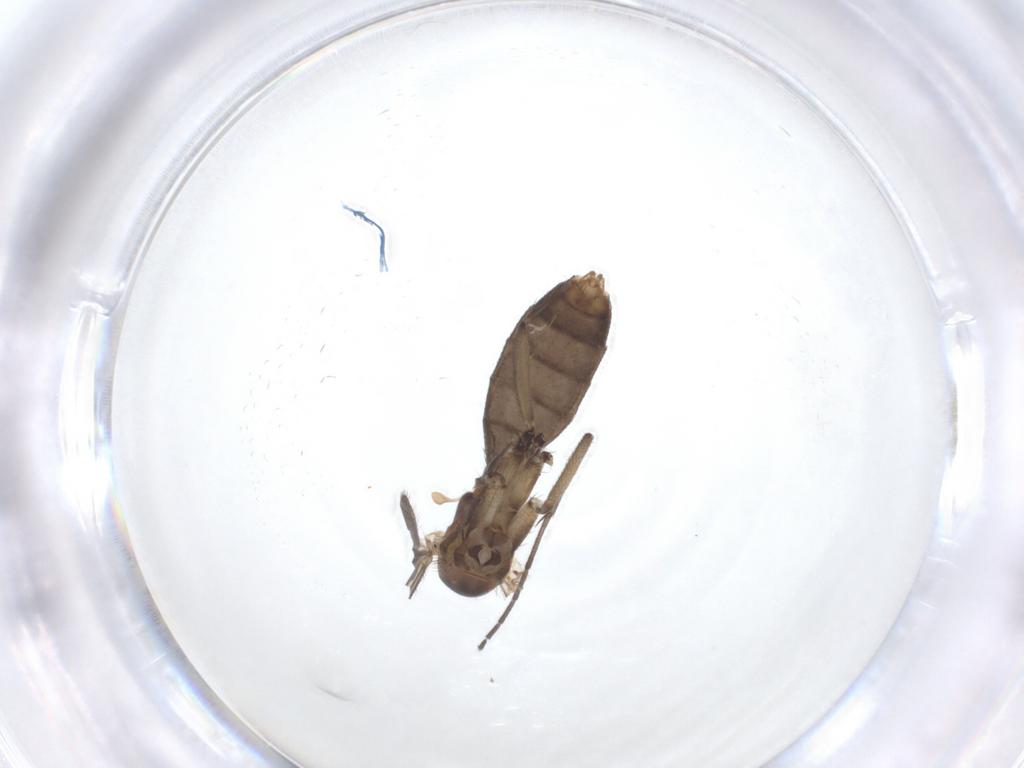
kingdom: Animalia
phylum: Arthropoda
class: Insecta
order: Diptera
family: Mycetophilidae
